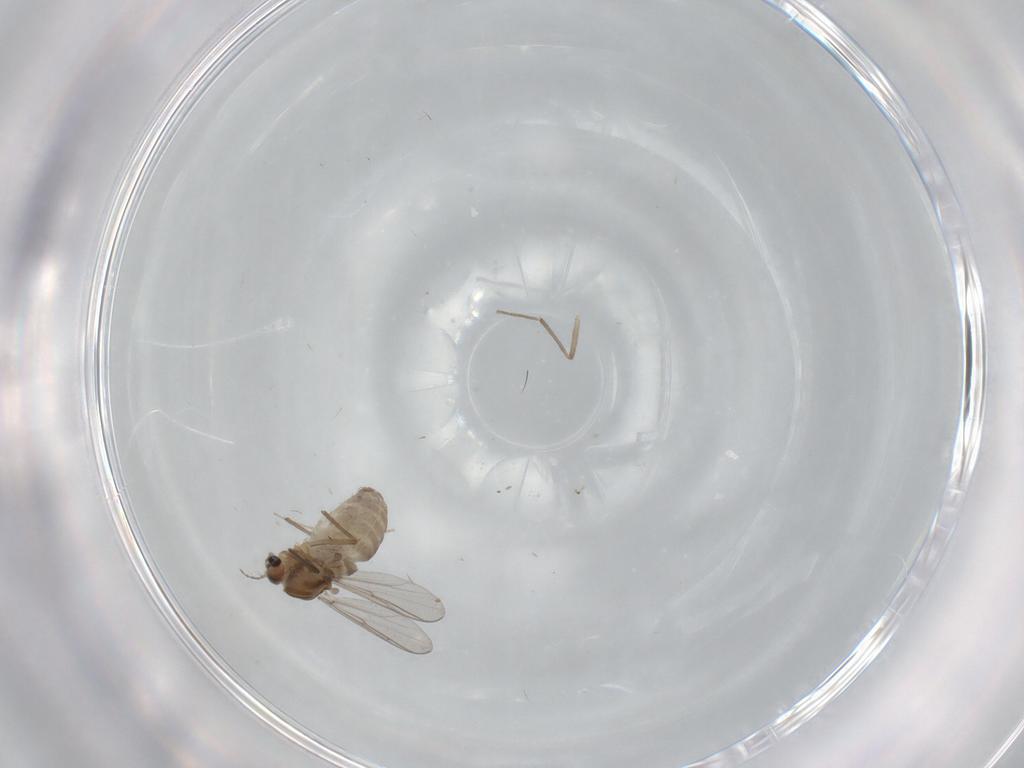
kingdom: Animalia
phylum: Arthropoda
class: Insecta
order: Diptera
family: Chironomidae
